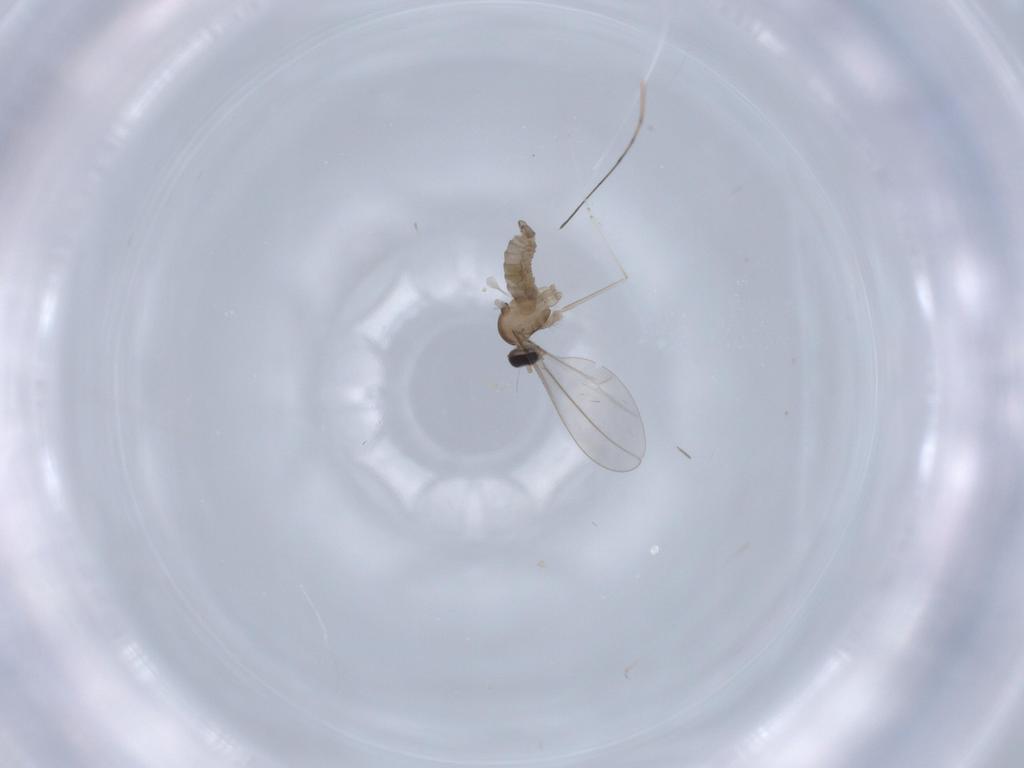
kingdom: Animalia
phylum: Arthropoda
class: Insecta
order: Diptera
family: Cecidomyiidae
